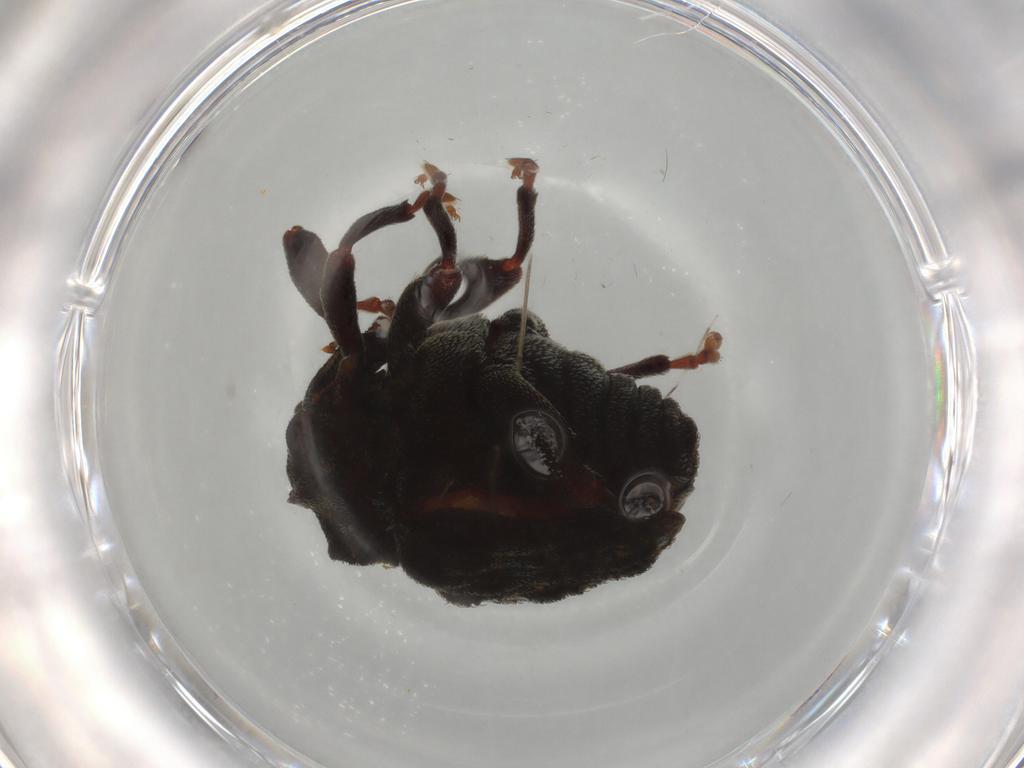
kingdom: Animalia
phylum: Arthropoda
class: Insecta
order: Coleoptera
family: Curculionidae
